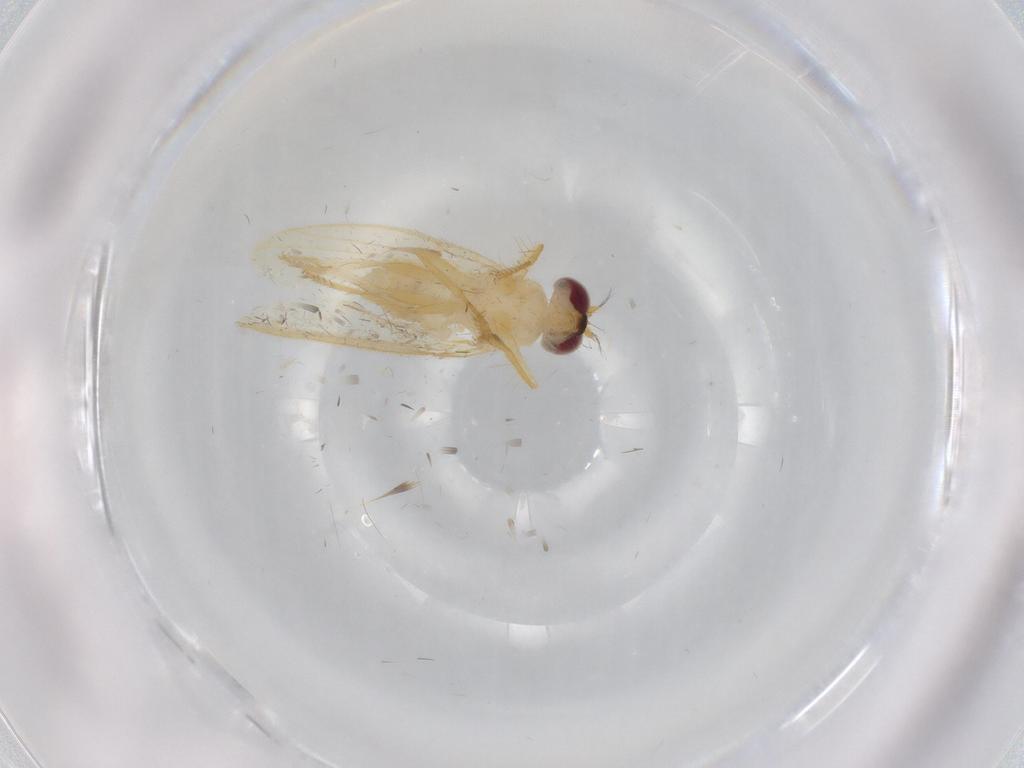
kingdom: Animalia
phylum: Arthropoda
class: Insecta
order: Diptera
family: Periscelididae
